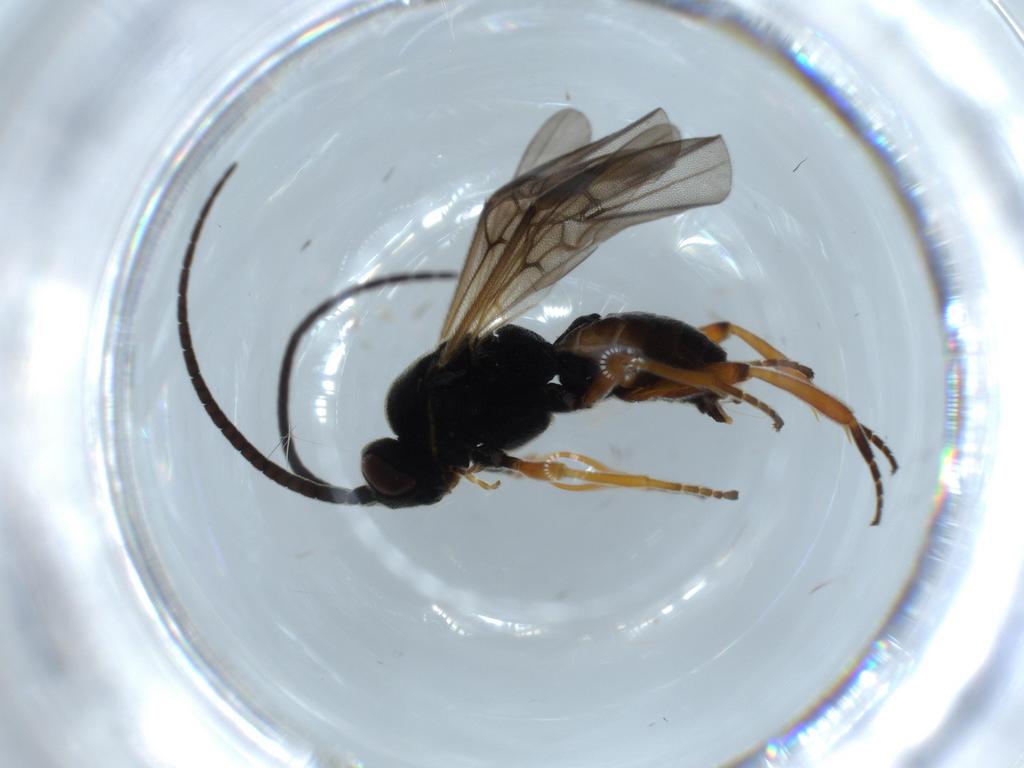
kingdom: Animalia
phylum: Arthropoda
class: Insecta
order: Hymenoptera
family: Braconidae
